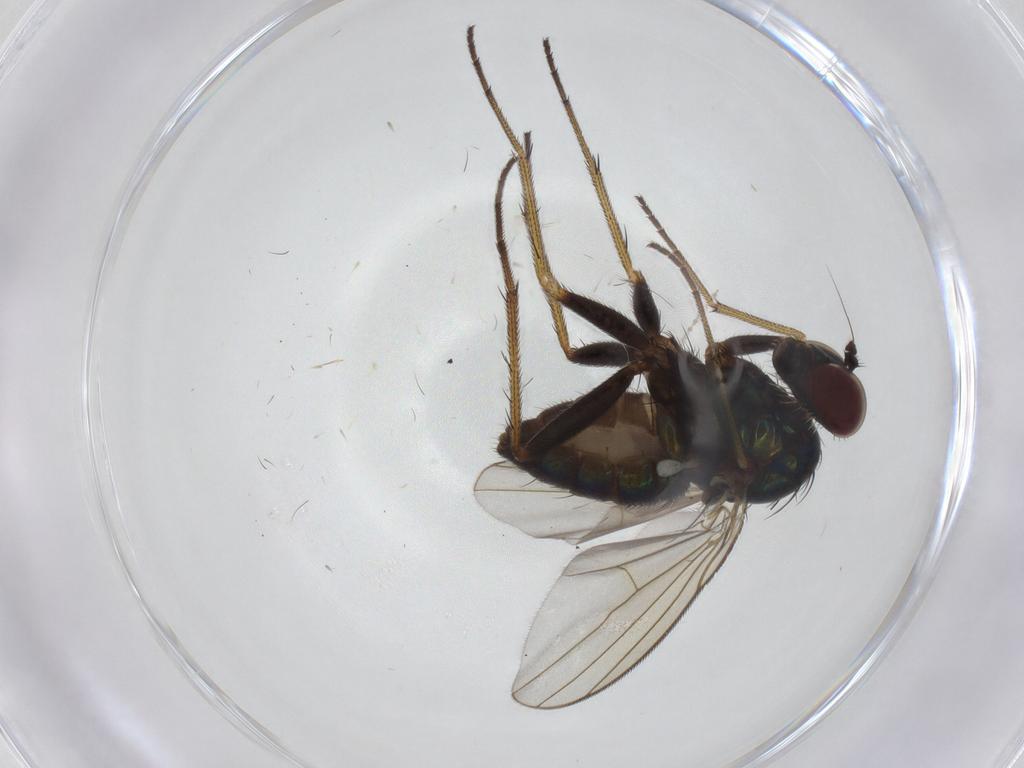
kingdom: Animalia
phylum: Arthropoda
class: Insecta
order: Diptera
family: Dolichopodidae
